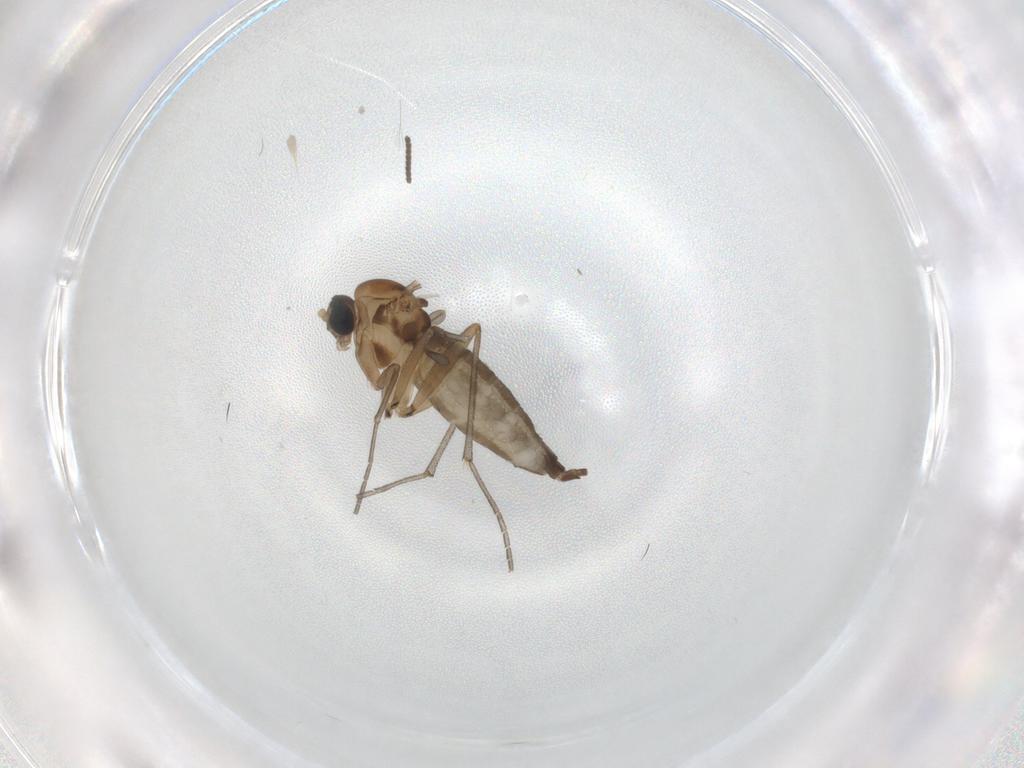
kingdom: Animalia
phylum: Arthropoda
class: Insecta
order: Diptera
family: Sciaridae
